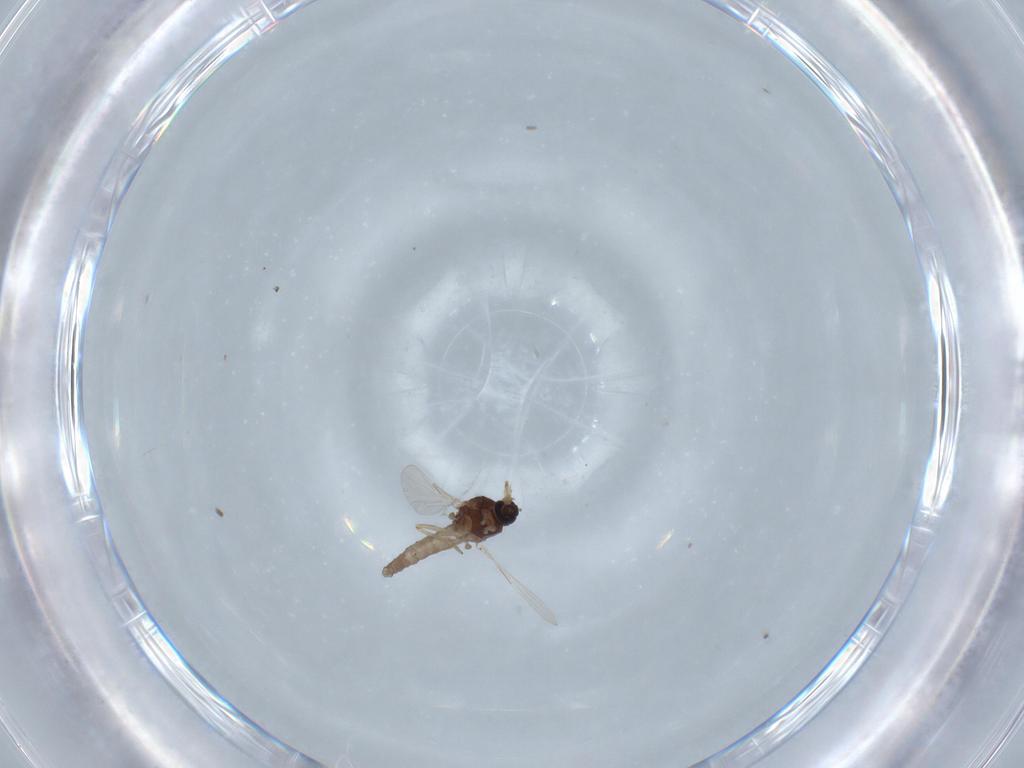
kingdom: Animalia
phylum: Arthropoda
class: Insecta
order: Diptera
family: Ceratopogonidae
